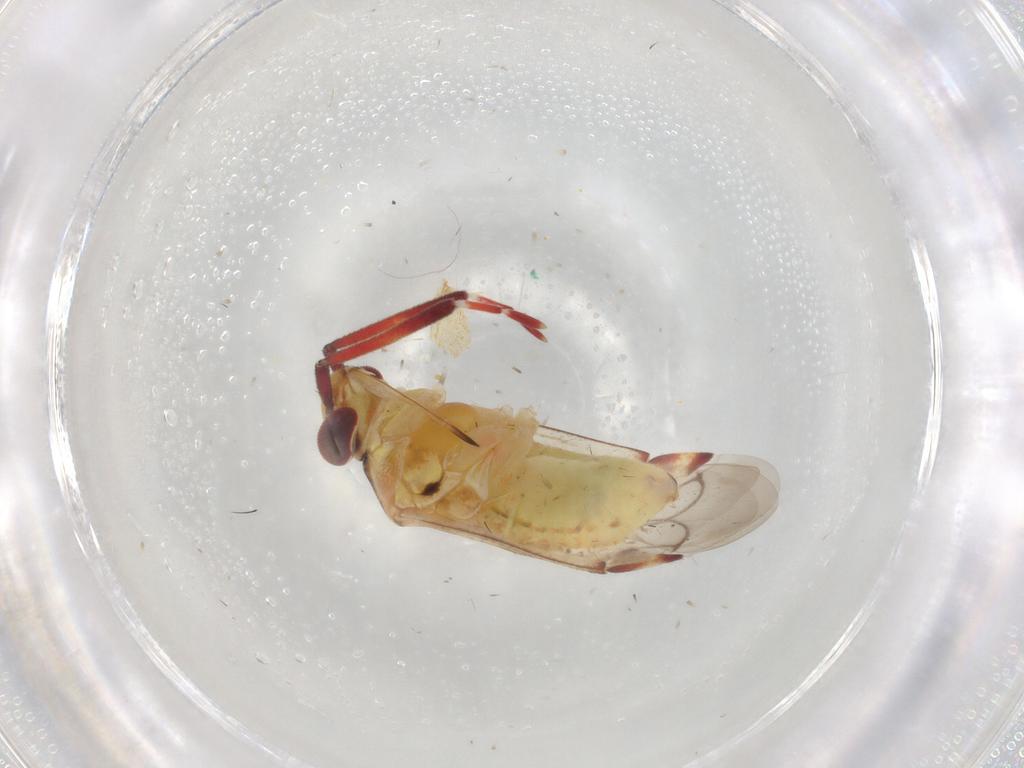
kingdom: Animalia
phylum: Arthropoda
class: Insecta
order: Hemiptera
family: Miridae
